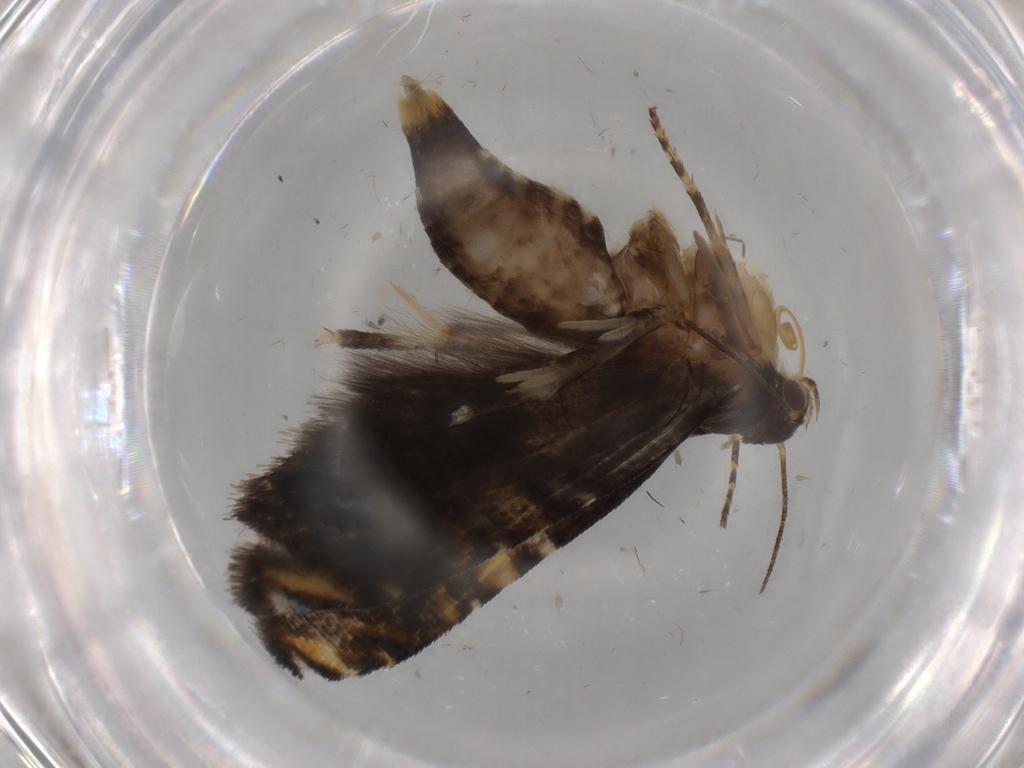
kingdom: Animalia
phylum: Arthropoda
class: Insecta
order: Lepidoptera
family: Glyphipterigidae
